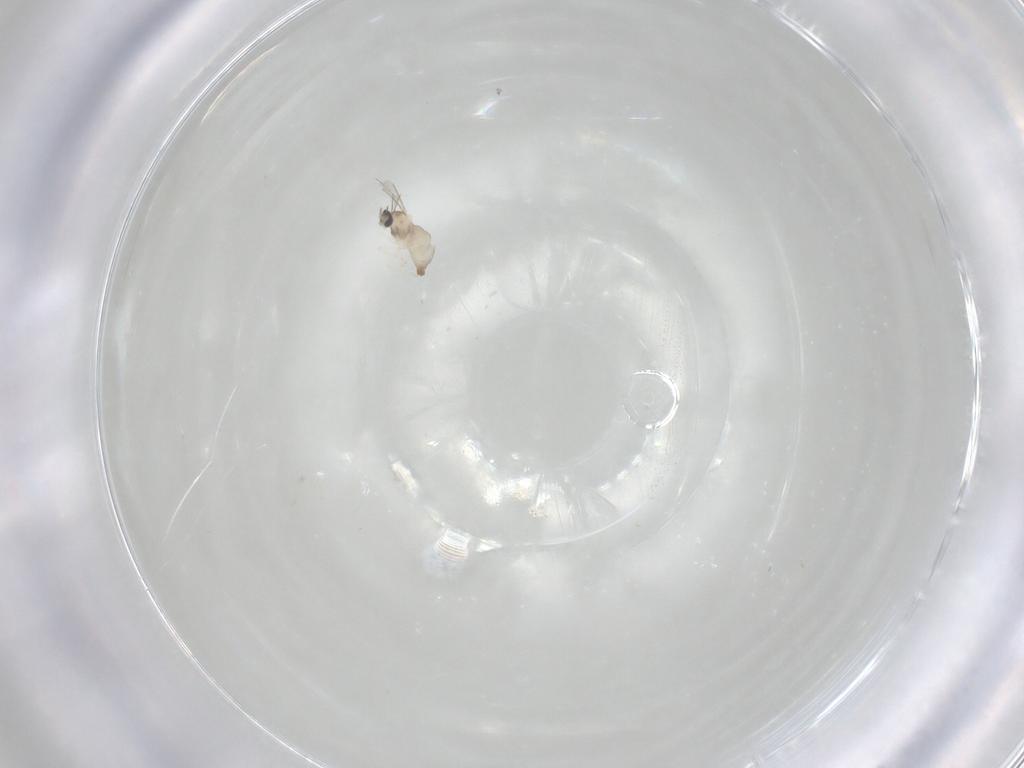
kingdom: Animalia
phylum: Arthropoda
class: Insecta
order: Diptera
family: Cecidomyiidae
